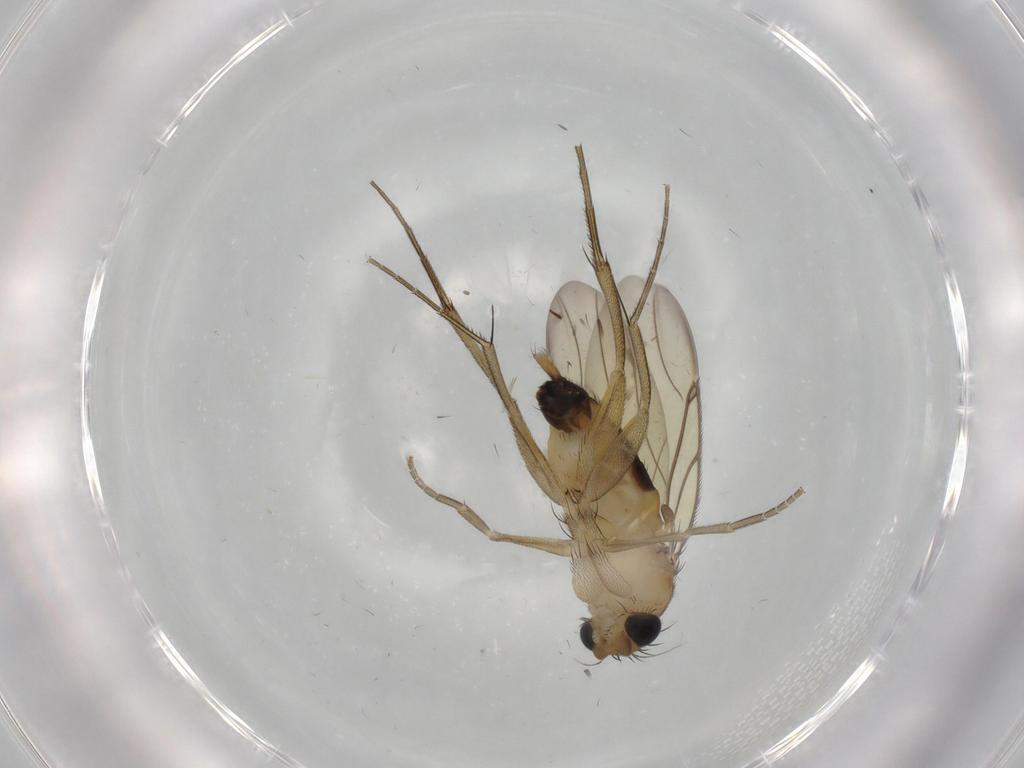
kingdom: Animalia
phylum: Arthropoda
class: Insecta
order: Diptera
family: Phoridae
